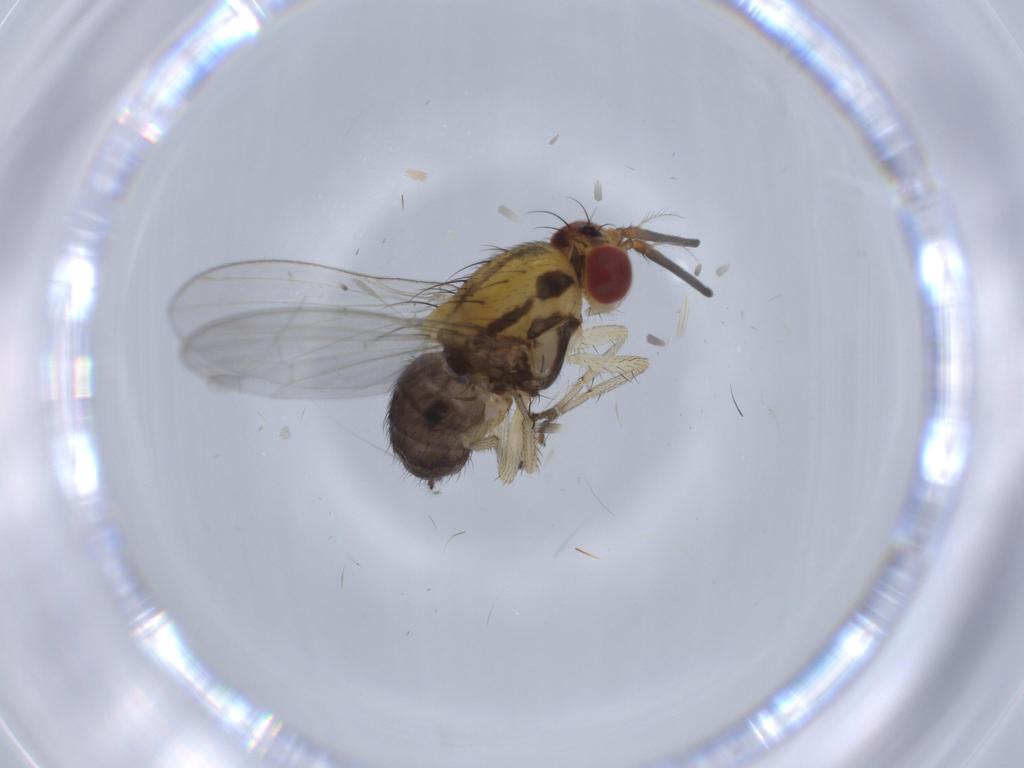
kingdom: Animalia
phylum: Arthropoda
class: Insecta
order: Diptera
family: Lauxaniidae
